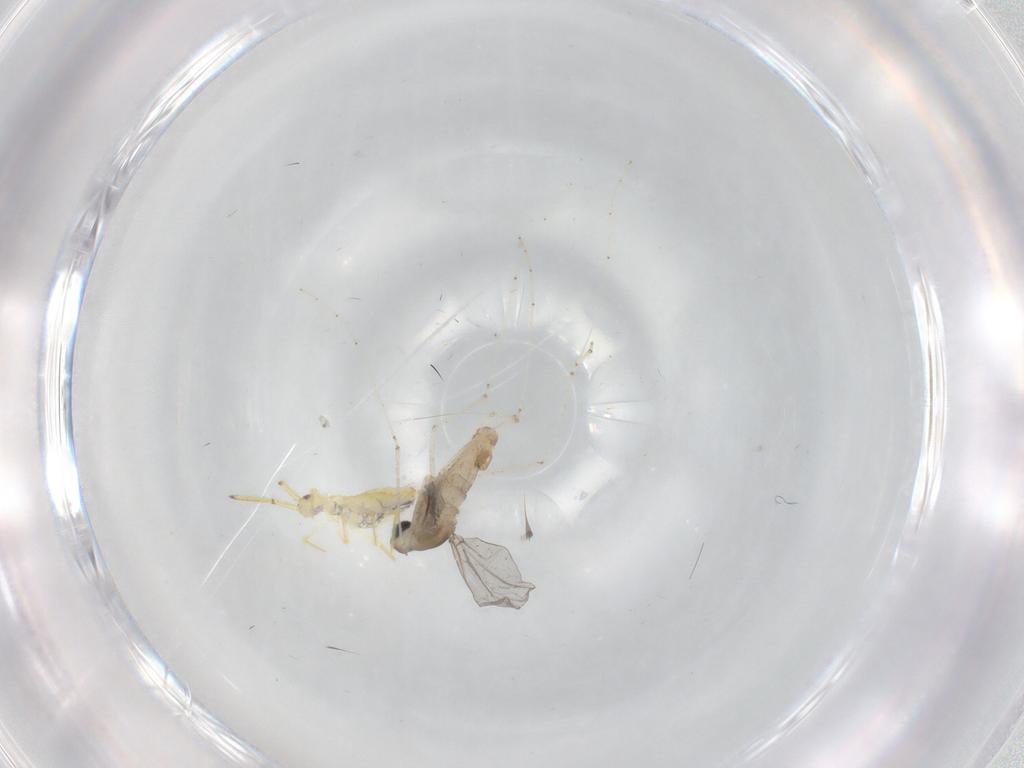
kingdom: Animalia
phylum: Arthropoda
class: Insecta
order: Diptera
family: Cecidomyiidae
